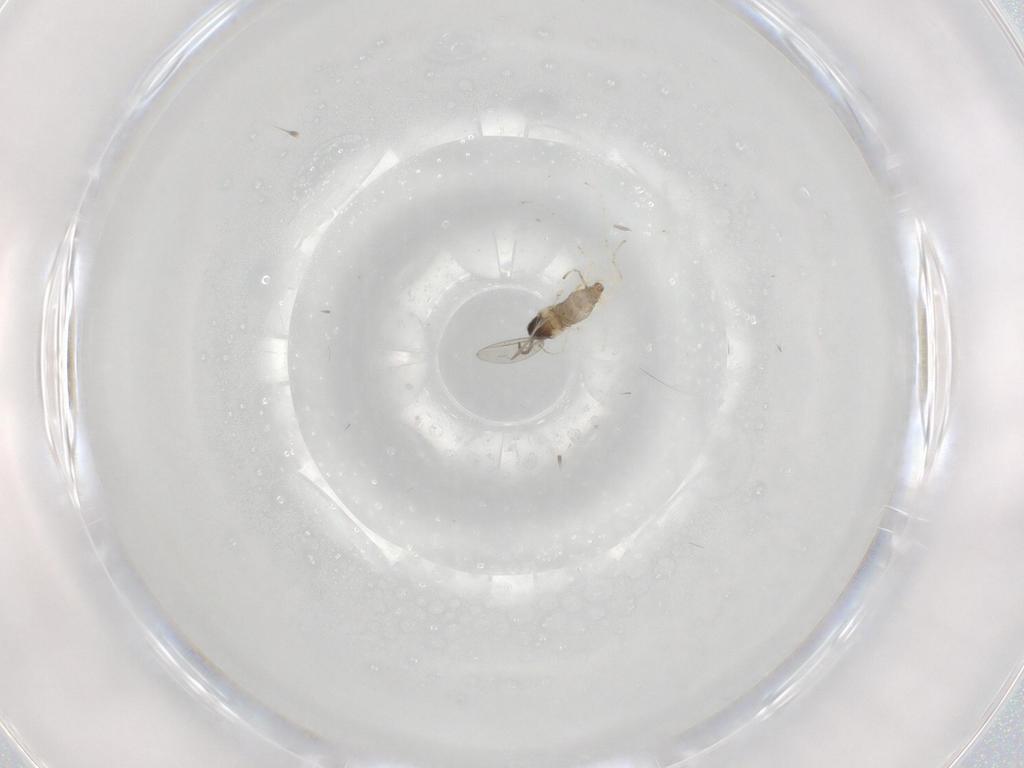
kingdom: Animalia
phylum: Arthropoda
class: Insecta
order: Diptera
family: Cecidomyiidae
